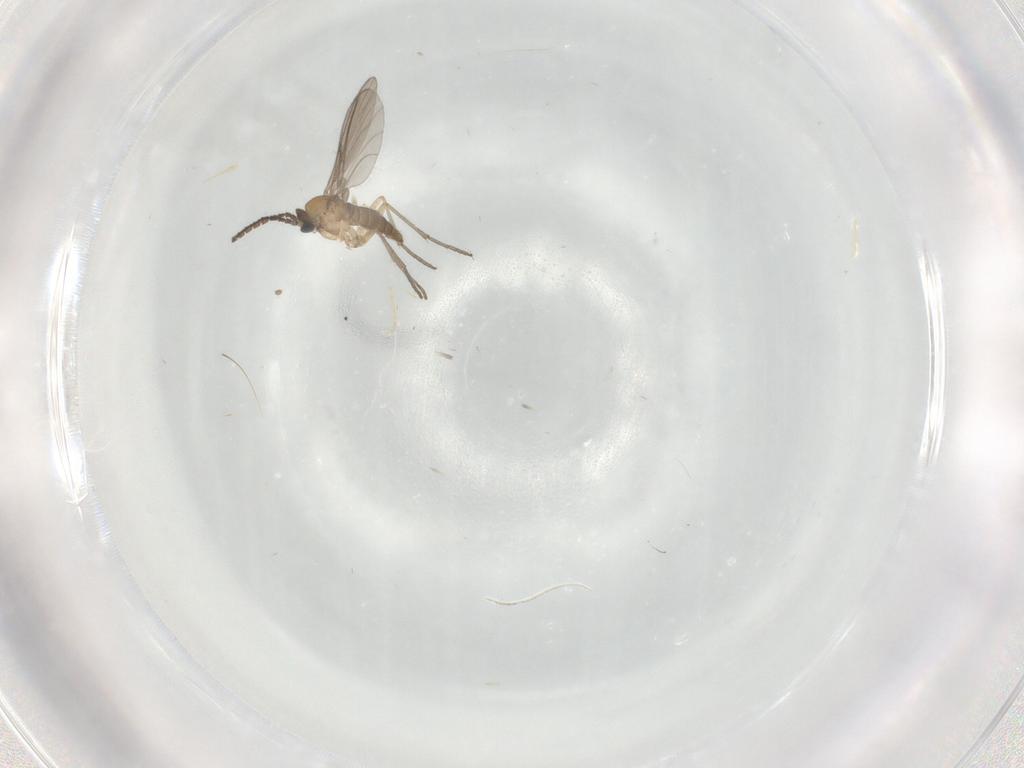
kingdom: Animalia
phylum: Arthropoda
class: Insecta
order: Diptera
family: Sciaridae
